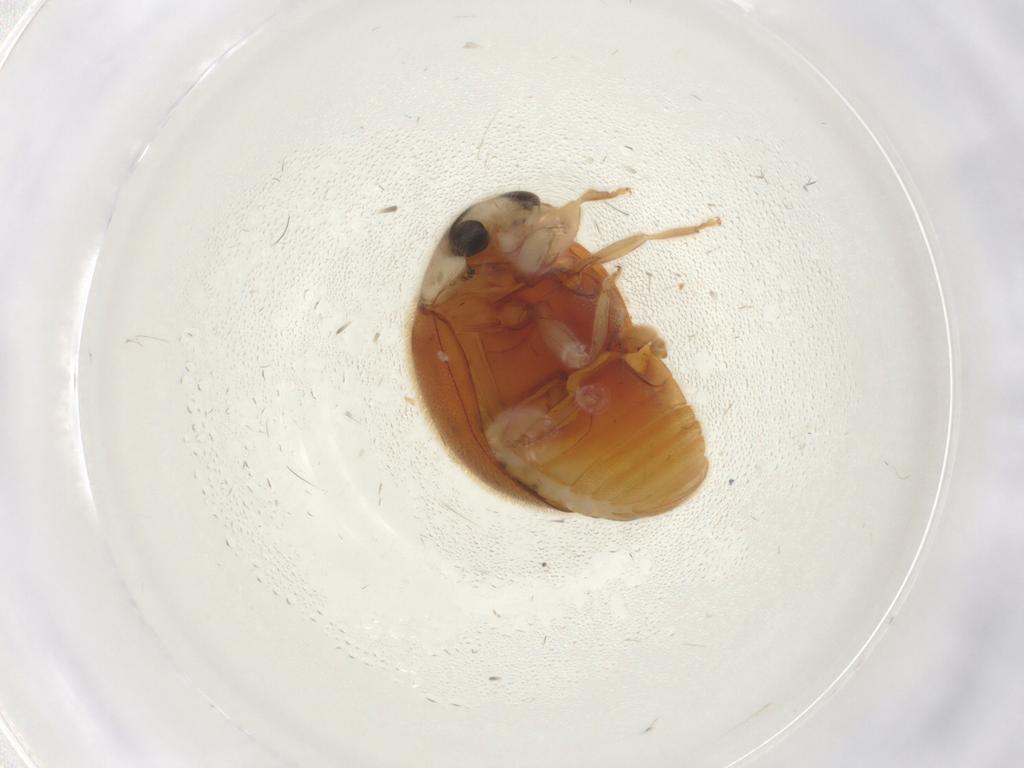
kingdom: Animalia
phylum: Arthropoda
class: Insecta
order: Coleoptera
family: Coccinellidae
